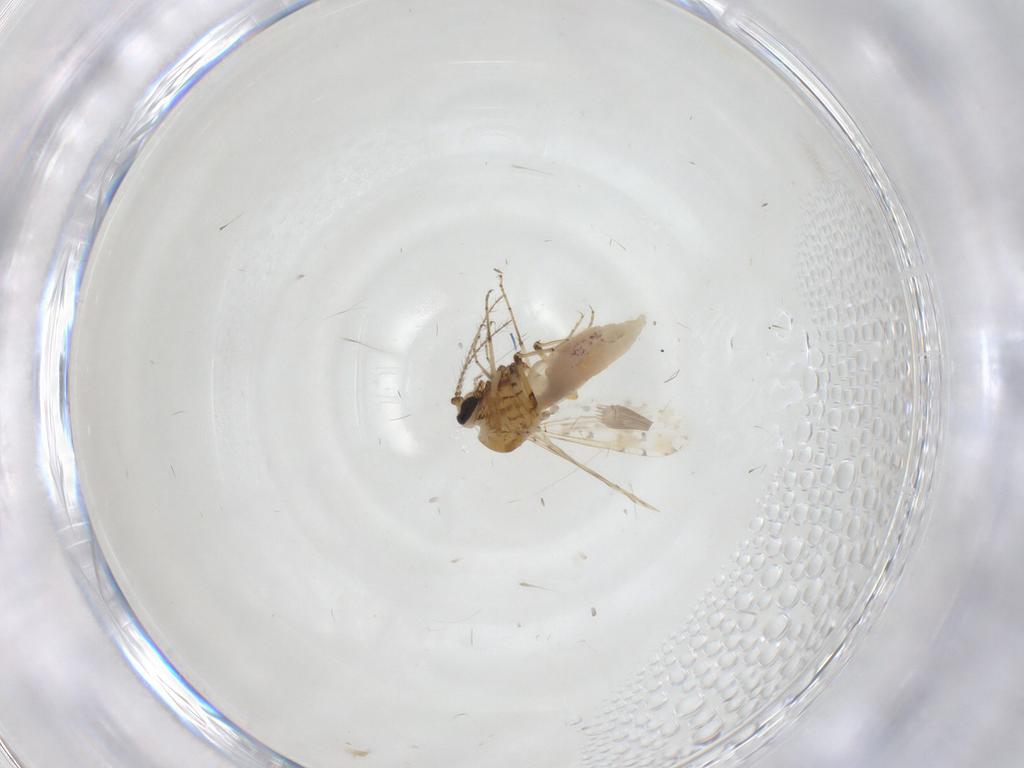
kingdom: Animalia
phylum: Arthropoda
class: Insecta
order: Diptera
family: Ceratopogonidae
